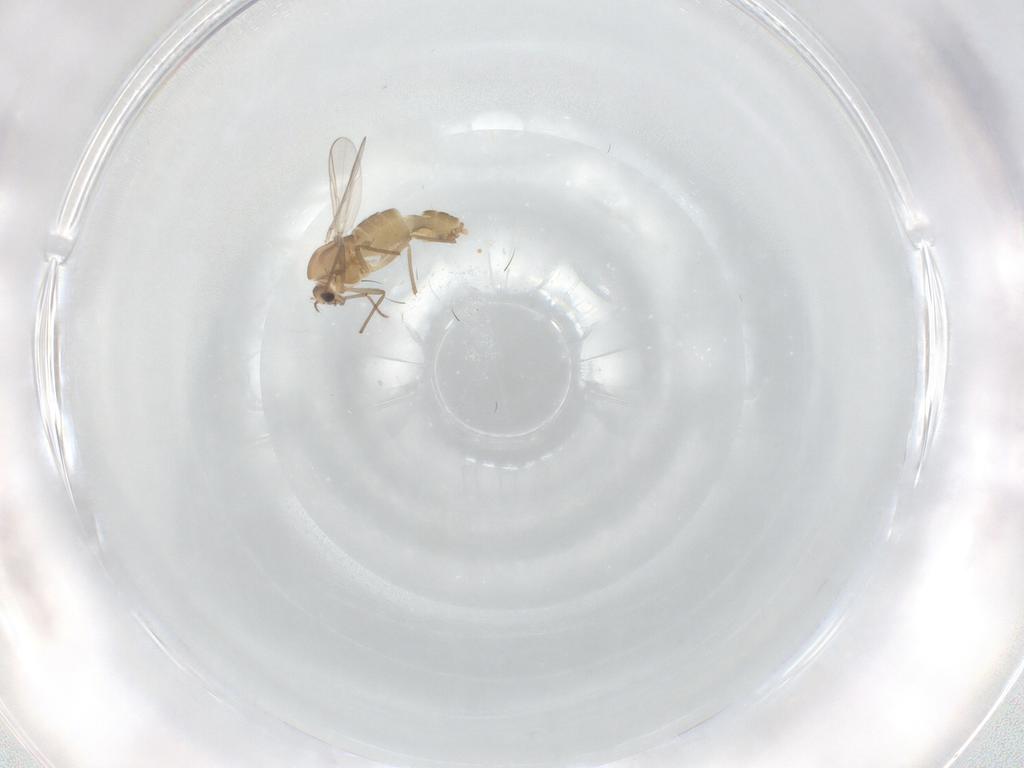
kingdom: Animalia
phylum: Arthropoda
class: Insecta
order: Diptera
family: Chironomidae
